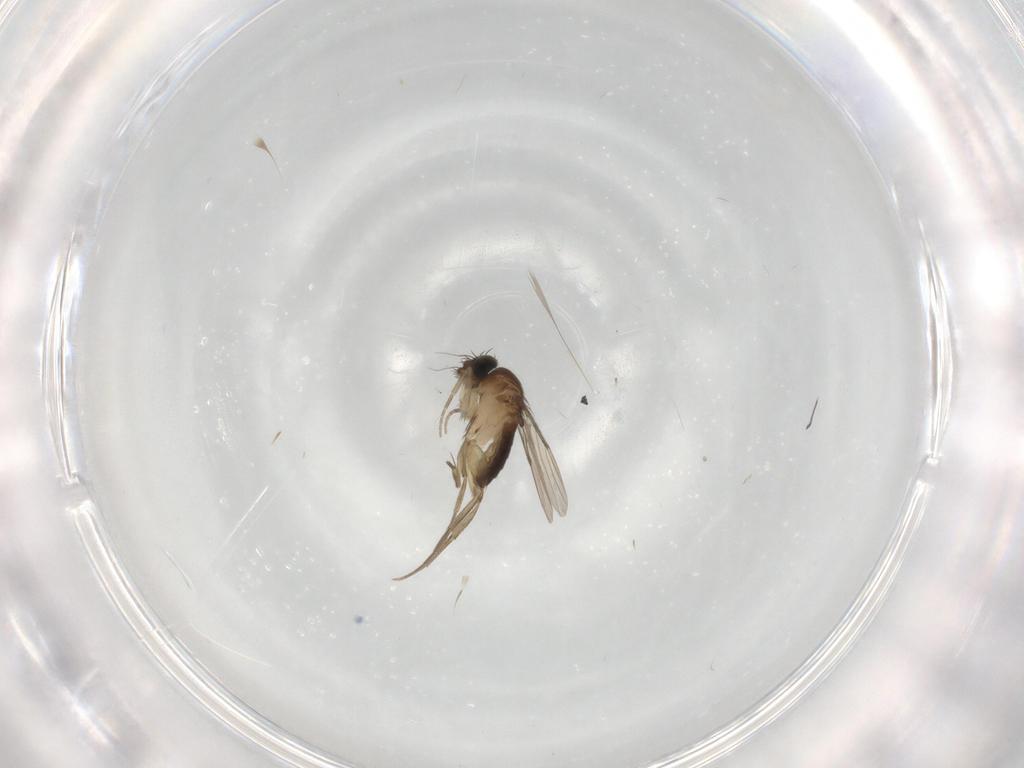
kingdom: Animalia
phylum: Arthropoda
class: Insecta
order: Diptera
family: Phoridae
